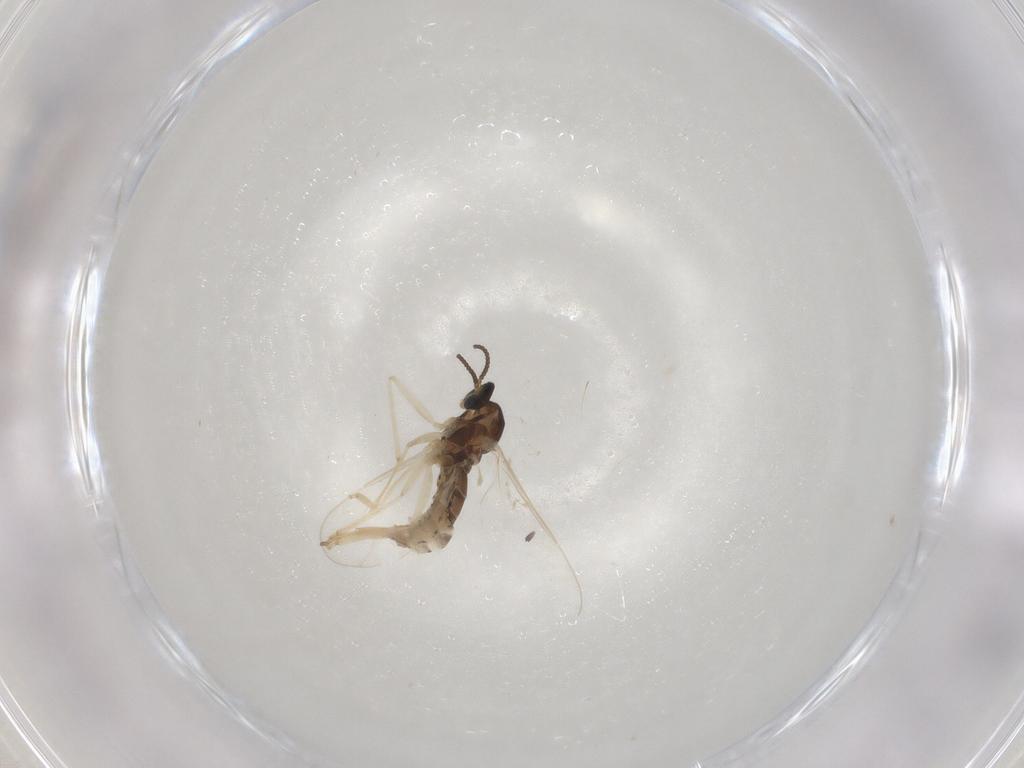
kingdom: Animalia
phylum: Arthropoda
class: Insecta
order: Diptera
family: Cecidomyiidae
